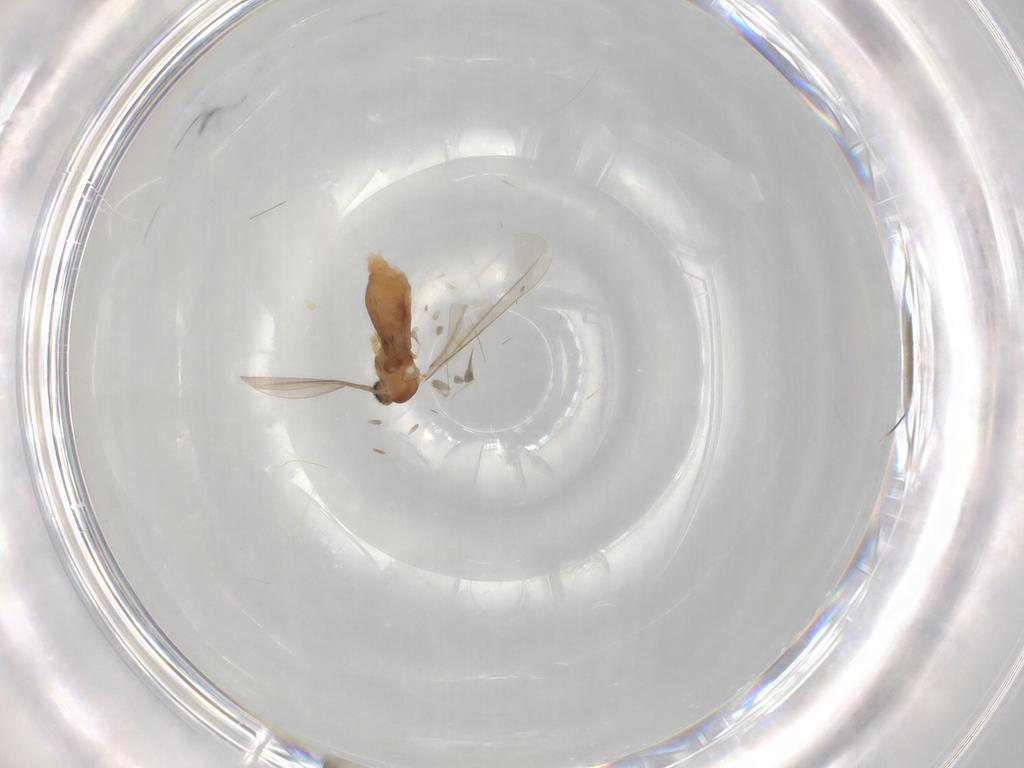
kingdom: Animalia
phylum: Arthropoda
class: Insecta
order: Diptera
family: Cecidomyiidae
